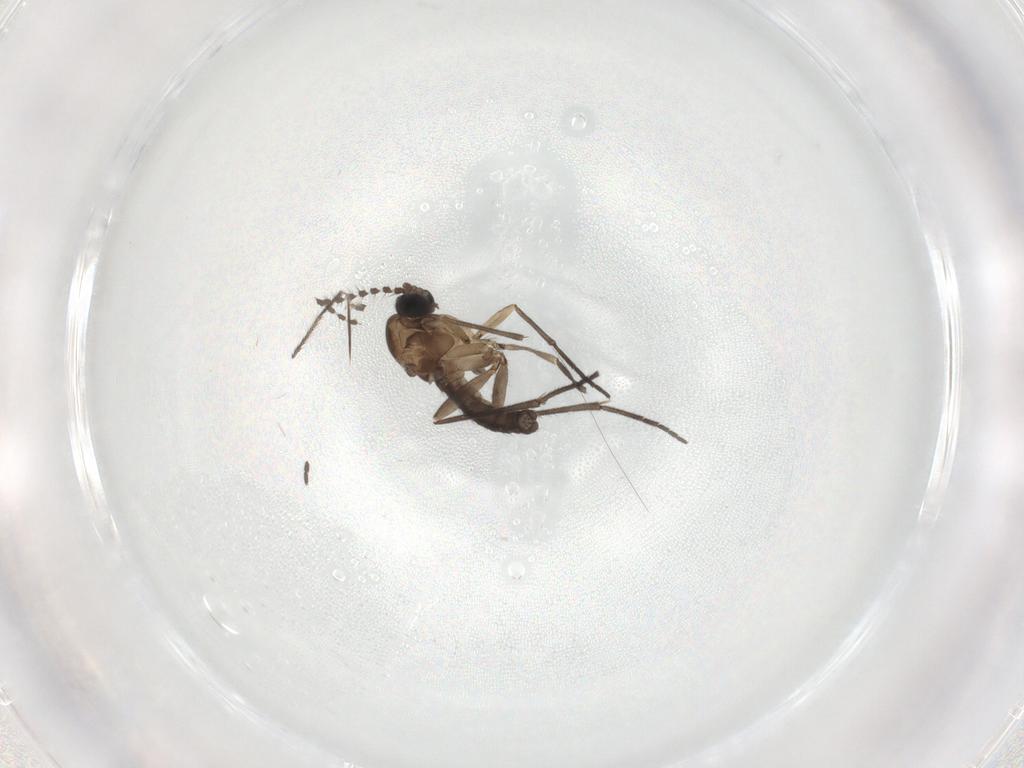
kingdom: Animalia
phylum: Arthropoda
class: Insecta
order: Diptera
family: Sciaridae
